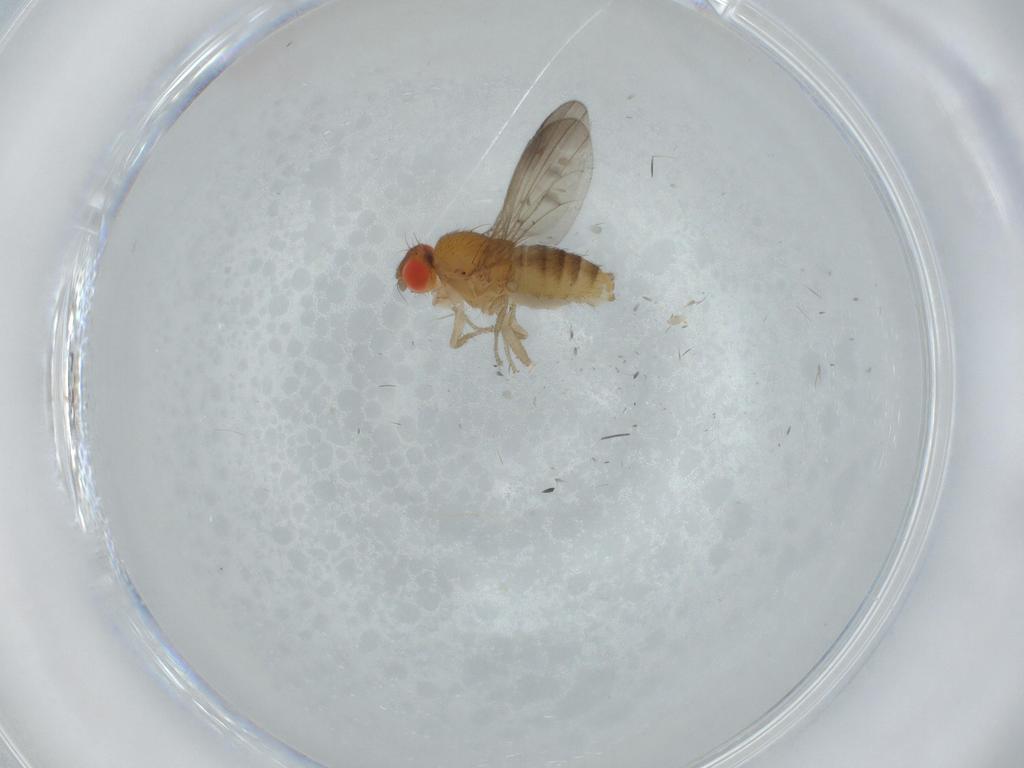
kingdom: Animalia
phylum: Arthropoda
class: Insecta
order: Diptera
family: Drosophilidae
